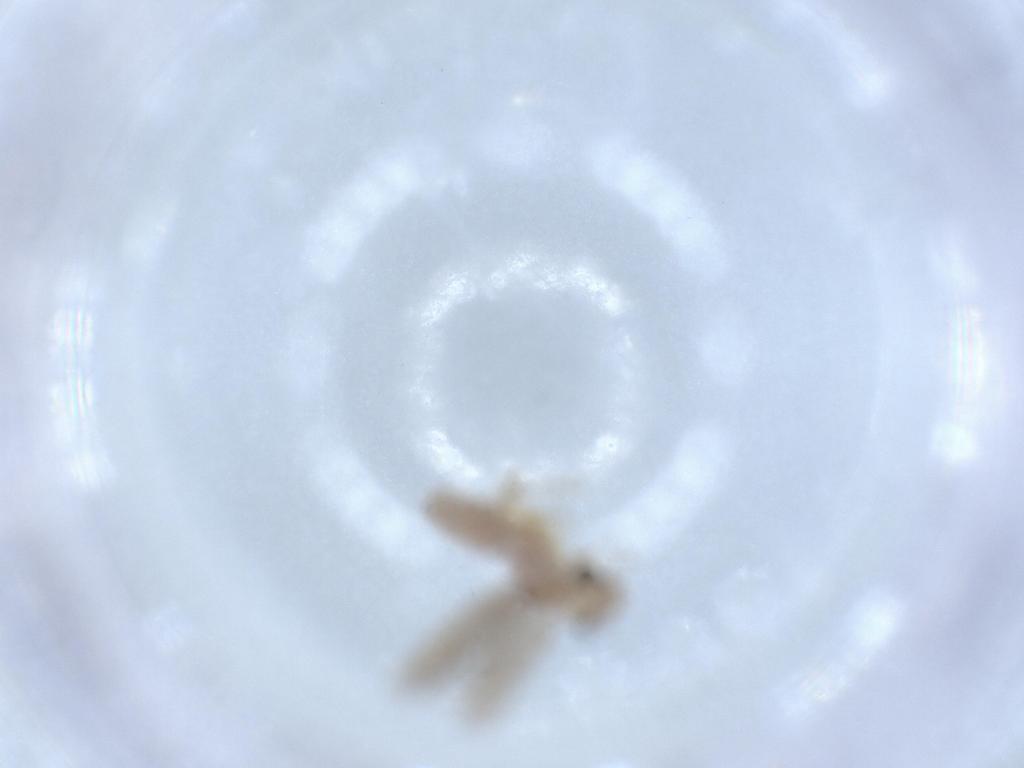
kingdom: Animalia
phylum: Arthropoda
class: Insecta
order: Psocodea
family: Lepidopsocidae
